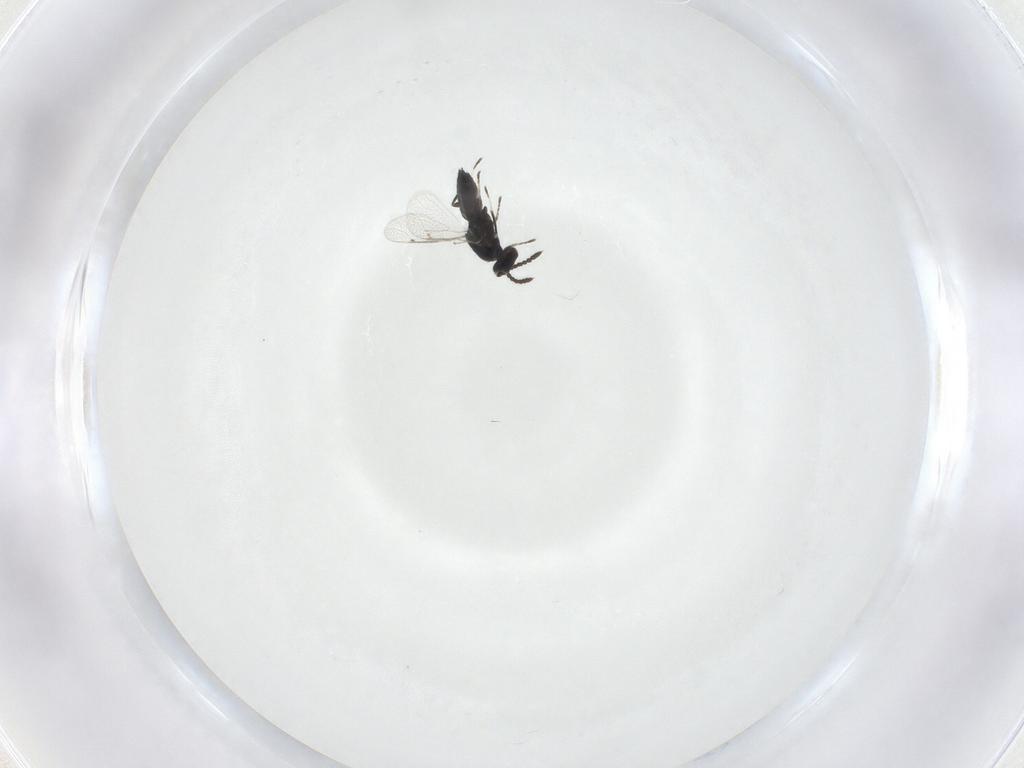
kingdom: Animalia
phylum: Arthropoda
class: Insecta
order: Hymenoptera
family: Eulophidae
